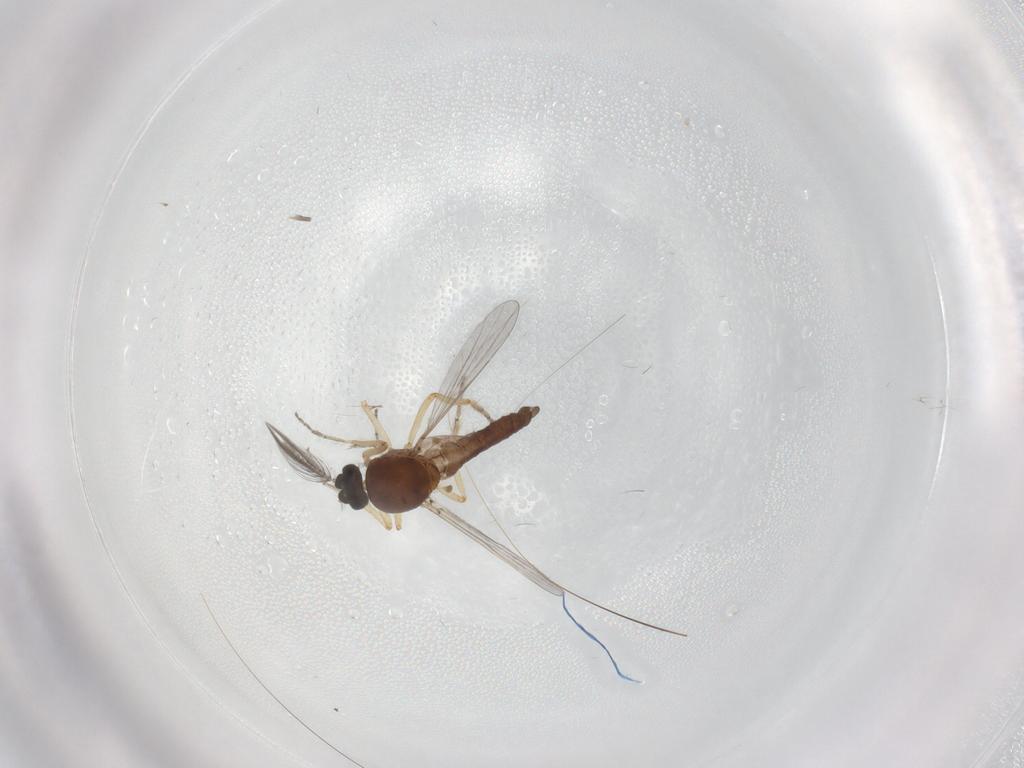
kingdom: Animalia
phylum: Arthropoda
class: Insecta
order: Diptera
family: Ceratopogonidae
